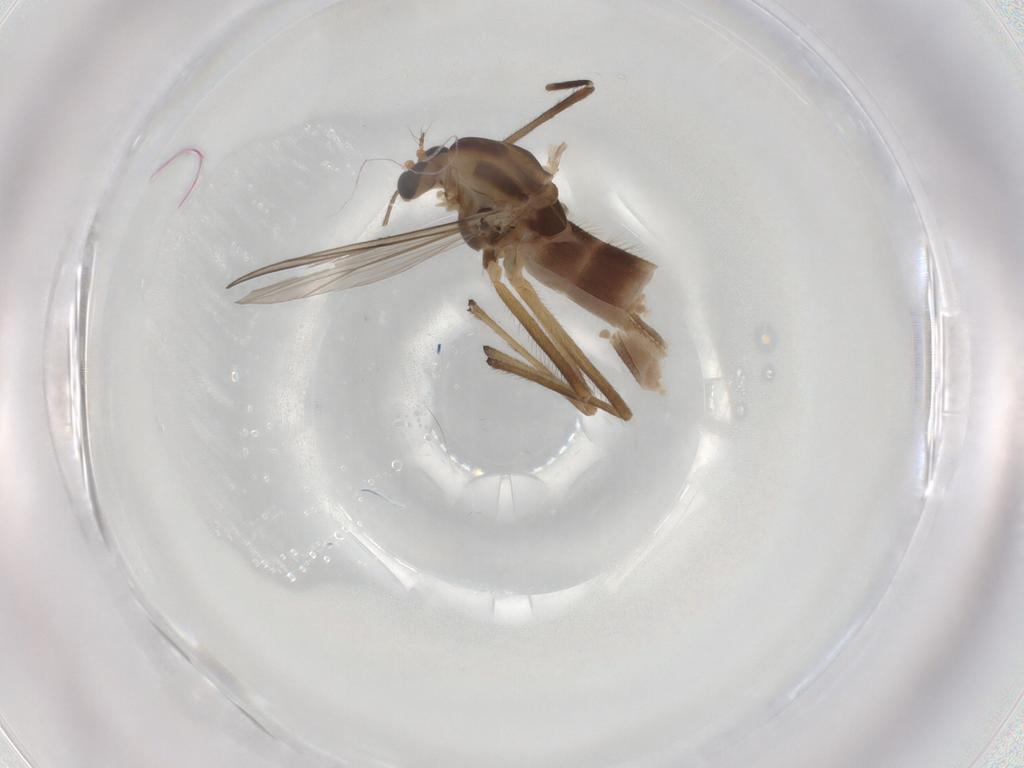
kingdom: Animalia
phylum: Arthropoda
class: Insecta
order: Diptera
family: Chironomidae
